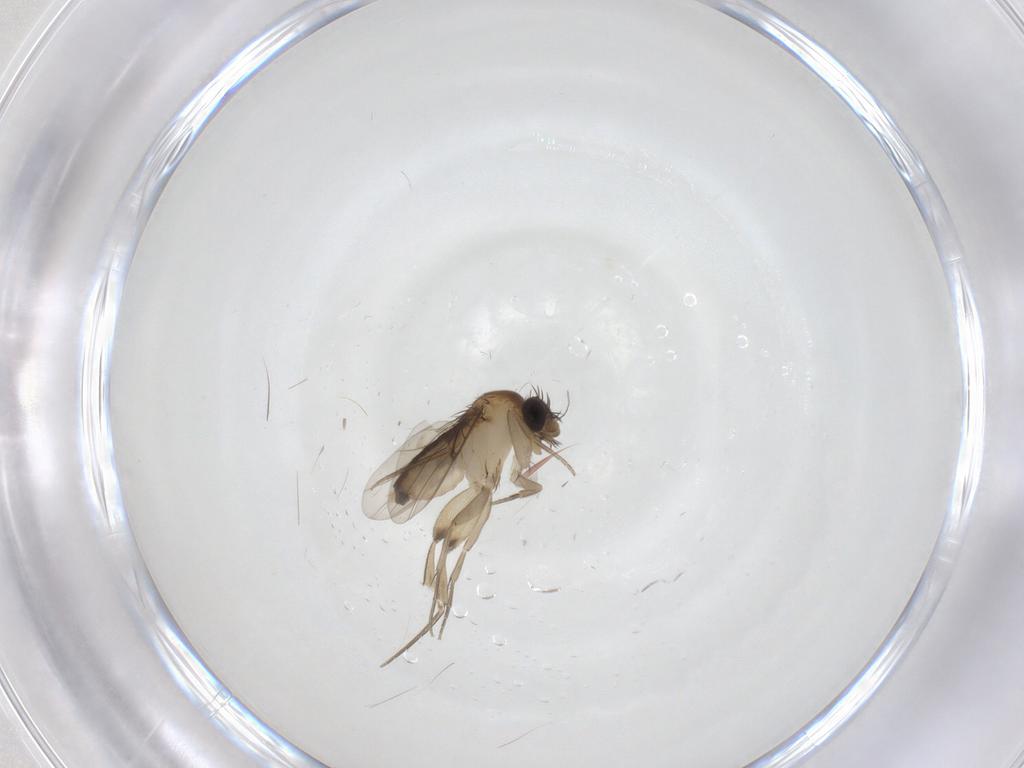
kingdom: Animalia
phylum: Arthropoda
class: Insecta
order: Diptera
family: Phoridae
